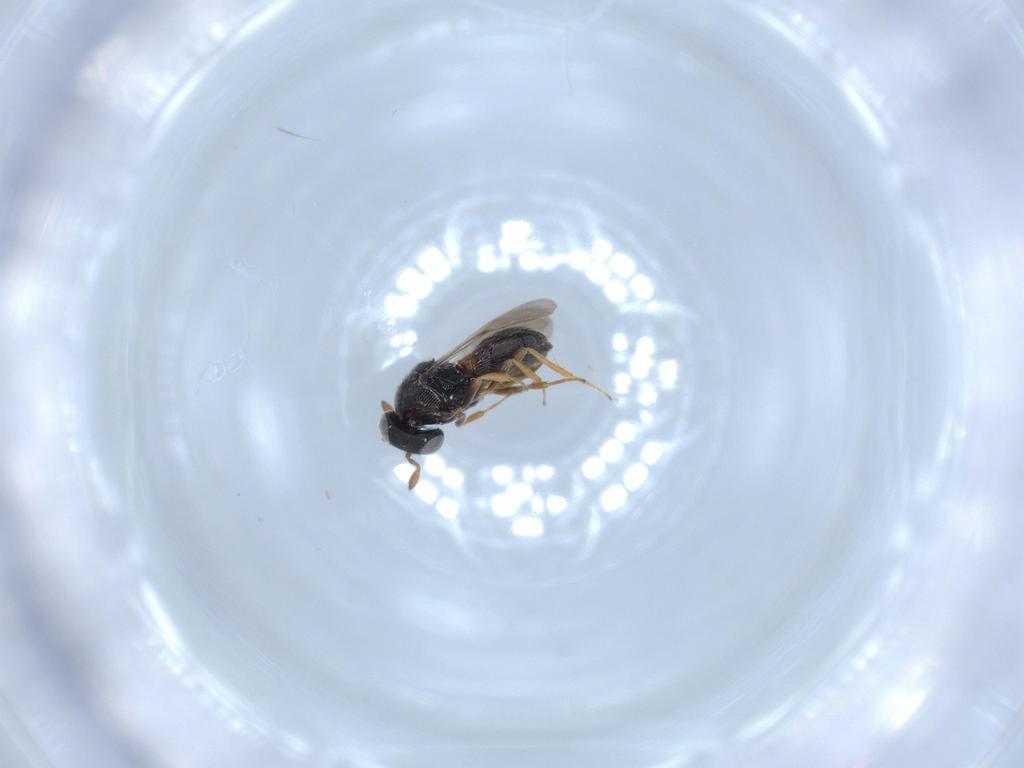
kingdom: Animalia
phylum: Arthropoda
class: Insecta
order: Hymenoptera
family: Scelionidae
